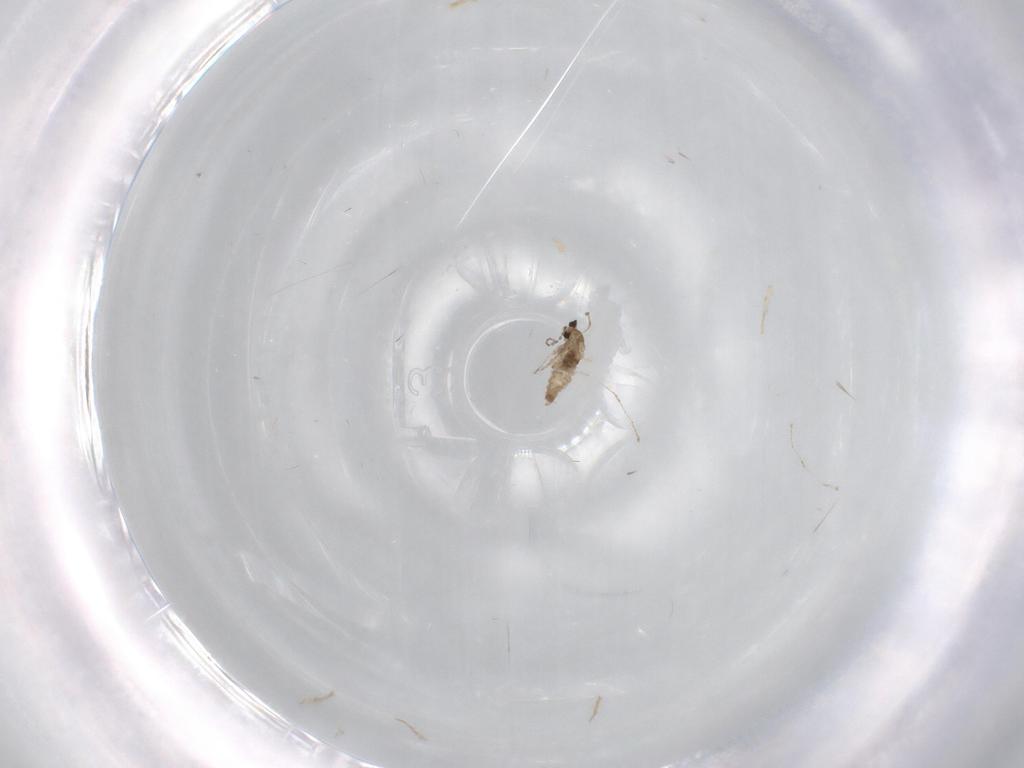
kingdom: Animalia
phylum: Arthropoda
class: Insecta
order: Diptera
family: Cecidomyiidae
